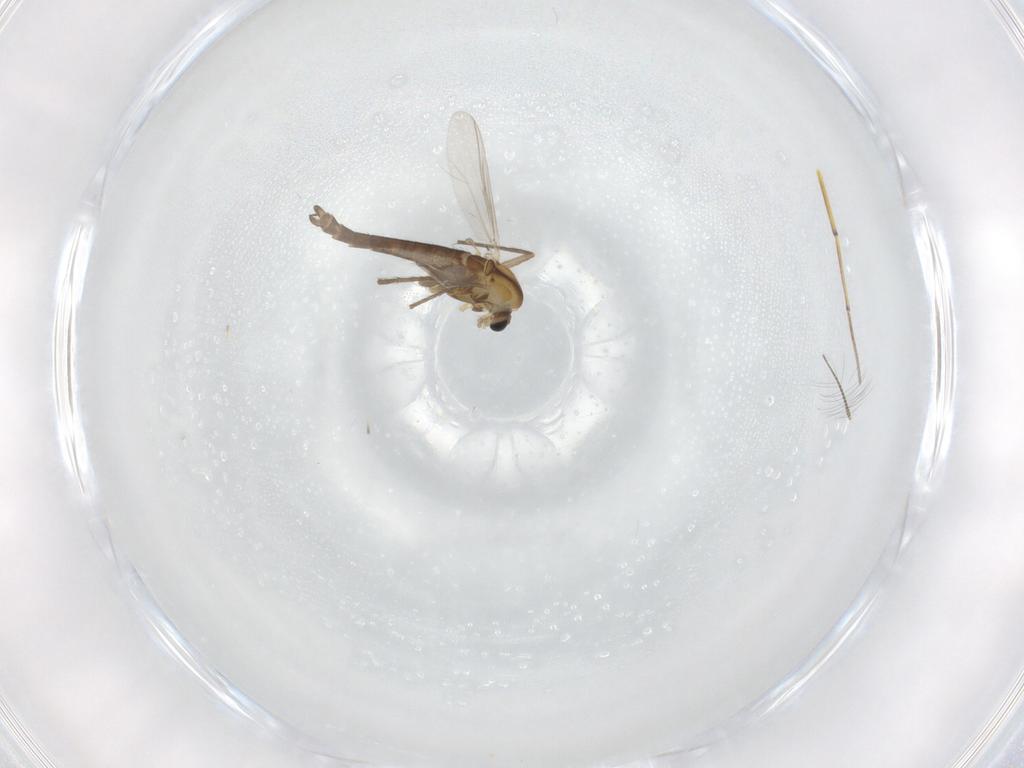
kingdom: Animalia
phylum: Arthropoda
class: Insecta
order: Diptera
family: Chironomidae
